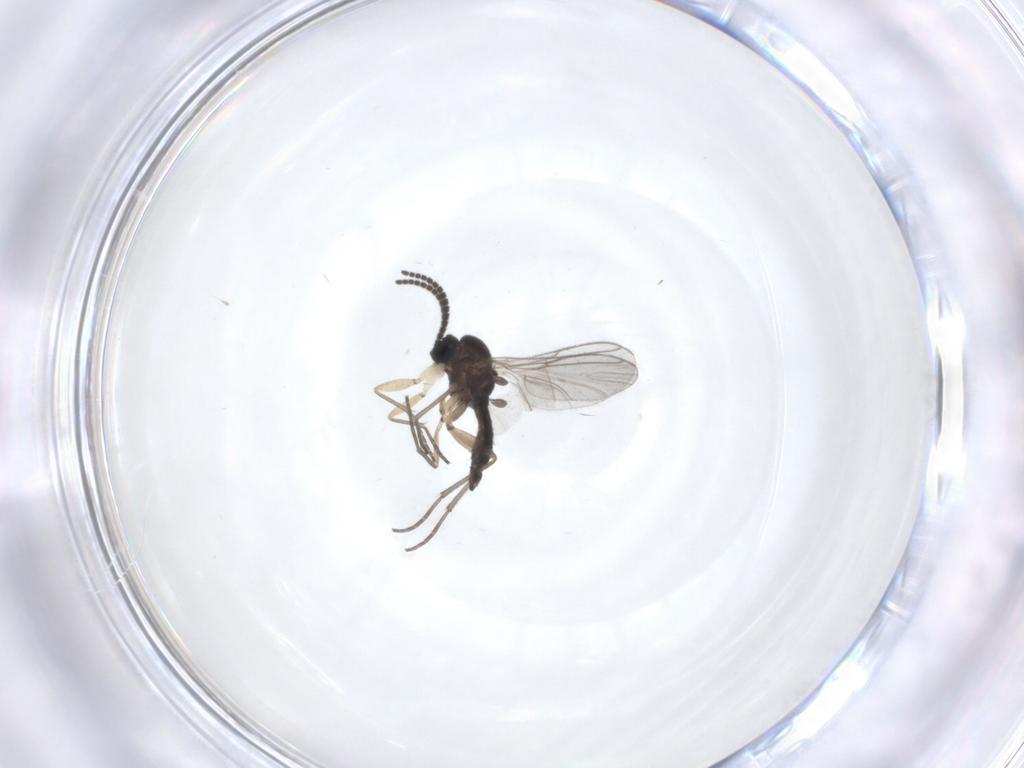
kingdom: Animalia
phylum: Arthropoda
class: Insecta
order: Diptera
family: Sciaridae
